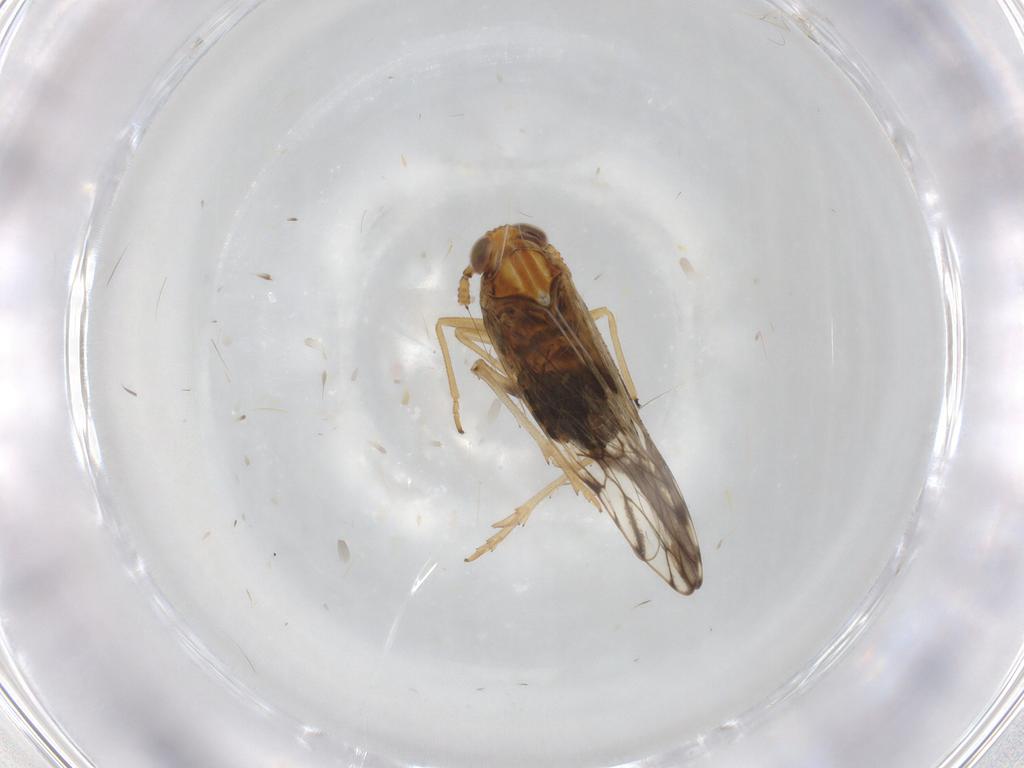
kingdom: Animalia
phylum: Arthropoda
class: Insecta
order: Hemiptera
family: Delphacidae
